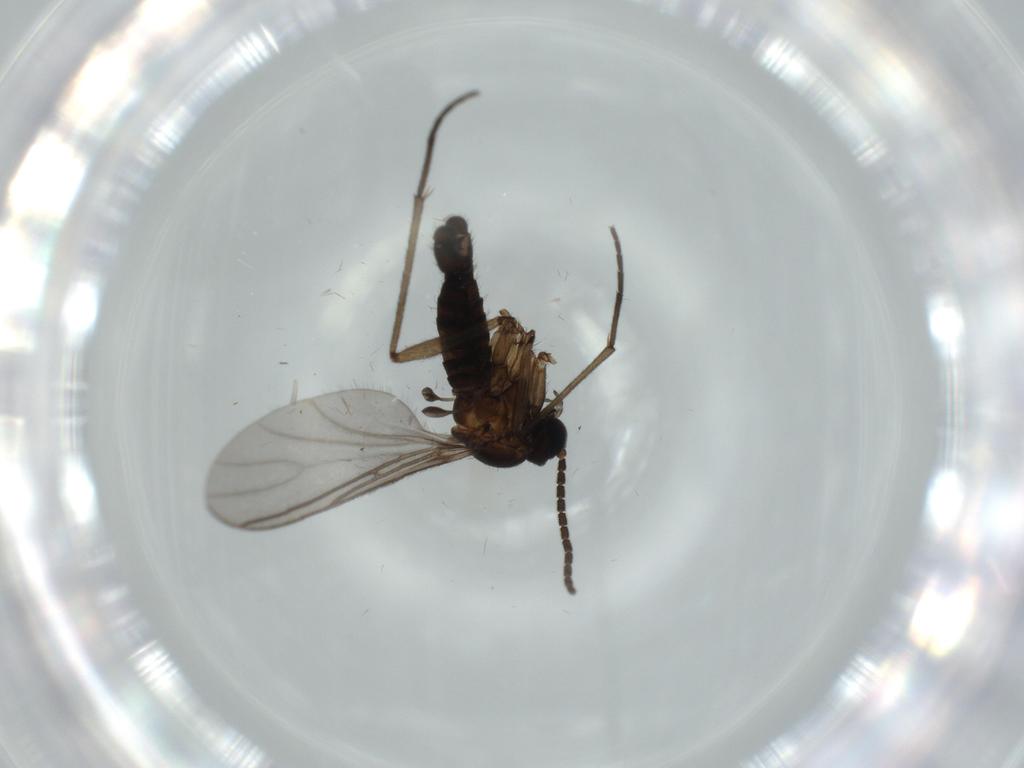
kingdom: Animalia
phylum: Arthropoda
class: Insecta
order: Diptera
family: Sciaridae
